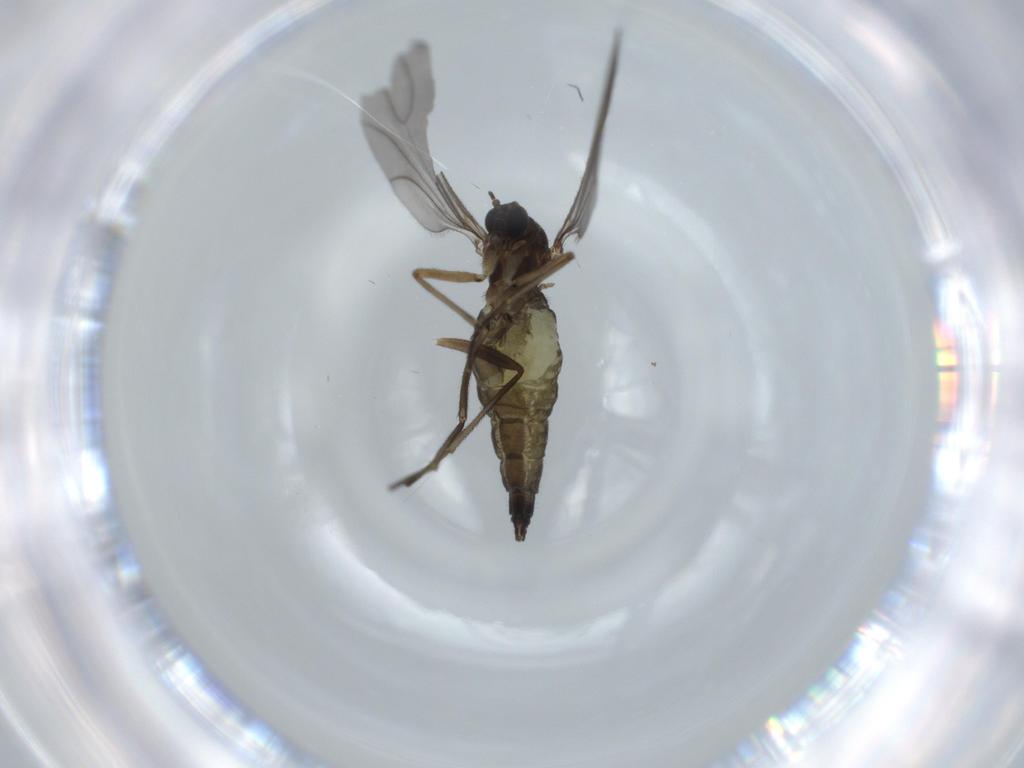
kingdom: Animalia
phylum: Arthropoda
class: Insecta
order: Diptera
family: Sciaridae
